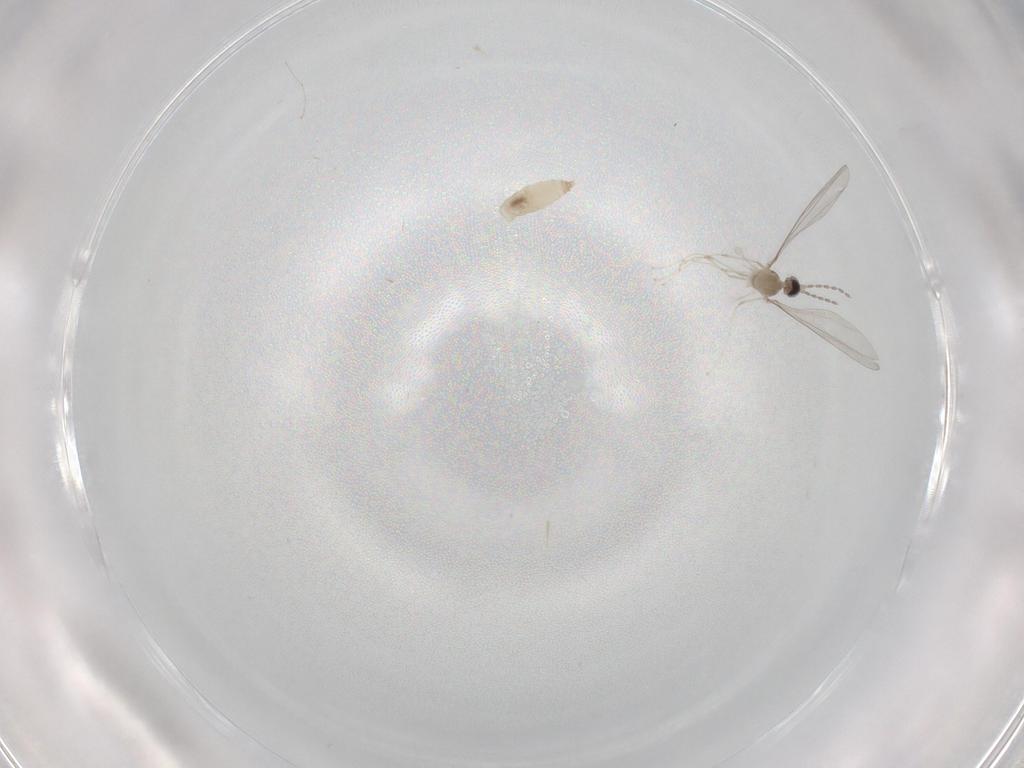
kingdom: Animalia
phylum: Arthropoda
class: Insecta
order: Diptera
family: Cecidomyiidae
